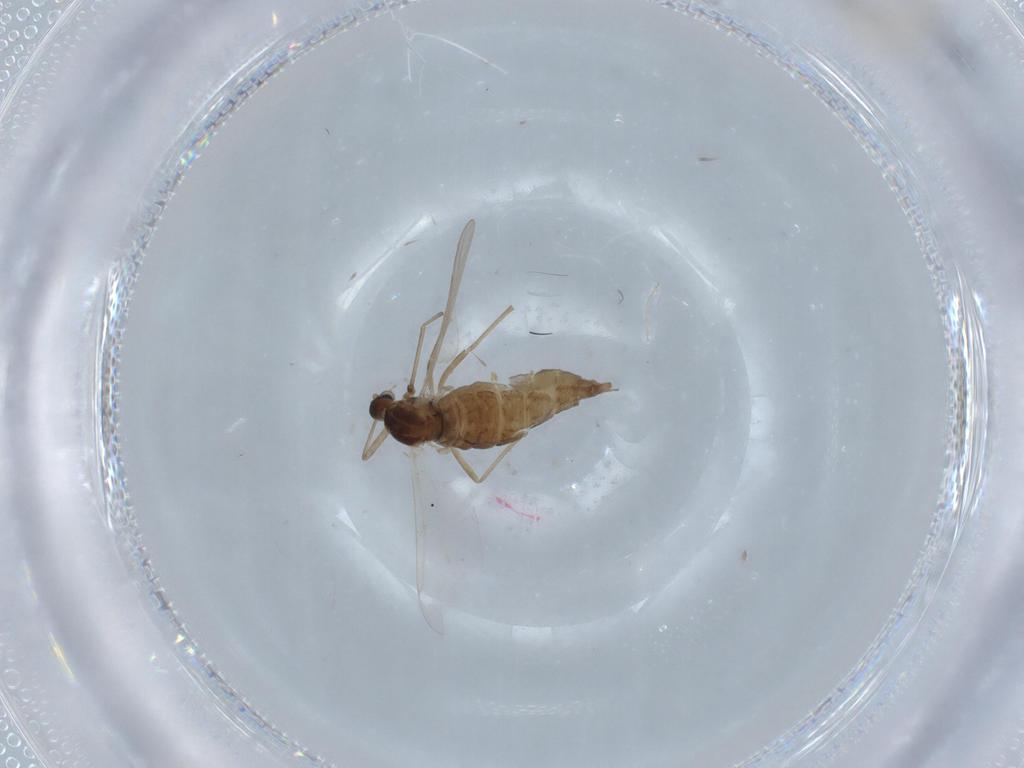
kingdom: Animalia
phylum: Arthropoda
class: Insecta
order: Diptera
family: Cecidomyiidae
